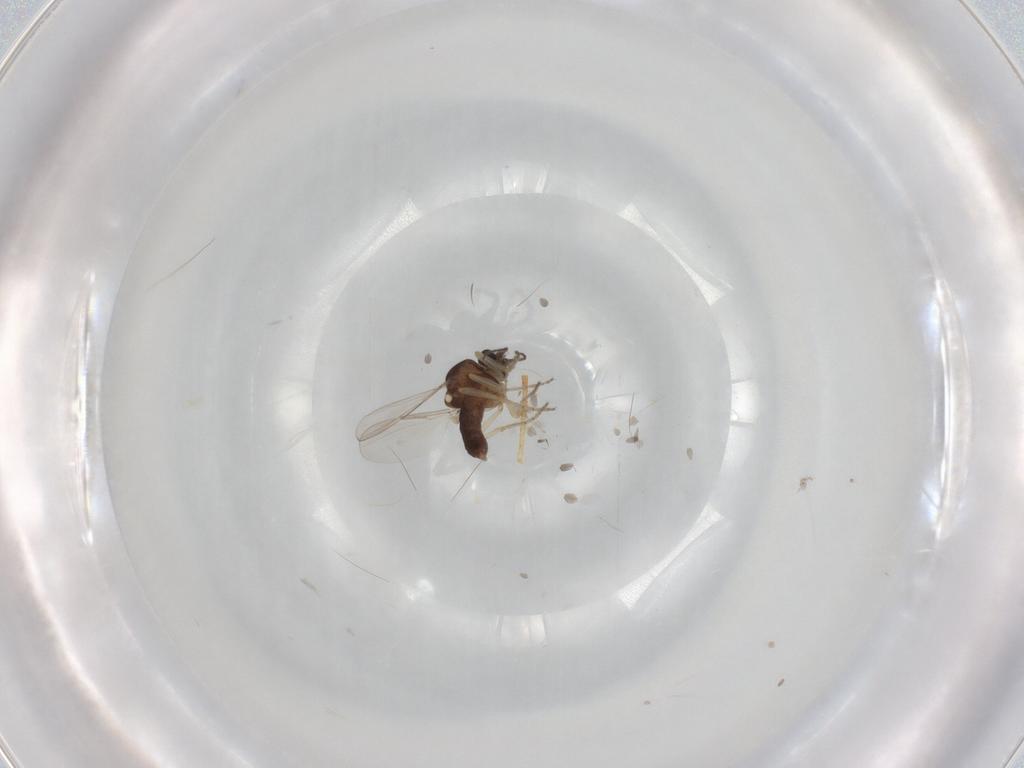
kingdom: Animalia
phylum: Arthropoda
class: Insecta
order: Diptera
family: Ceratopogonidae
